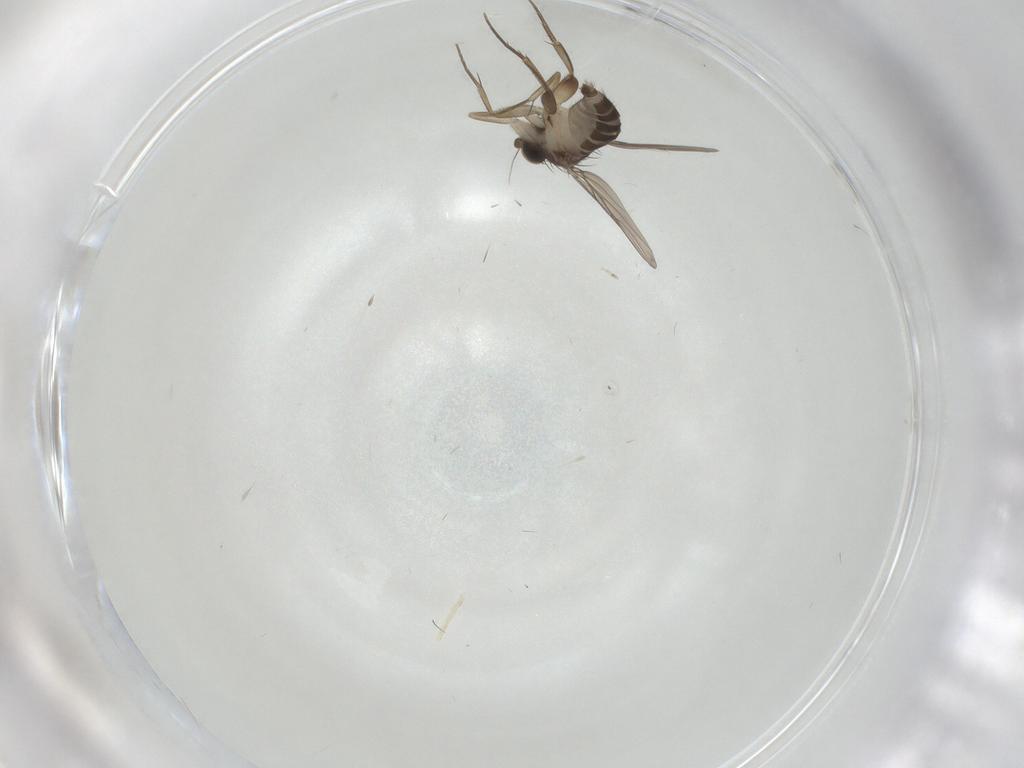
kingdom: Animalia
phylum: Arthropoda
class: Insecta
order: Diptera
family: Phoridae
